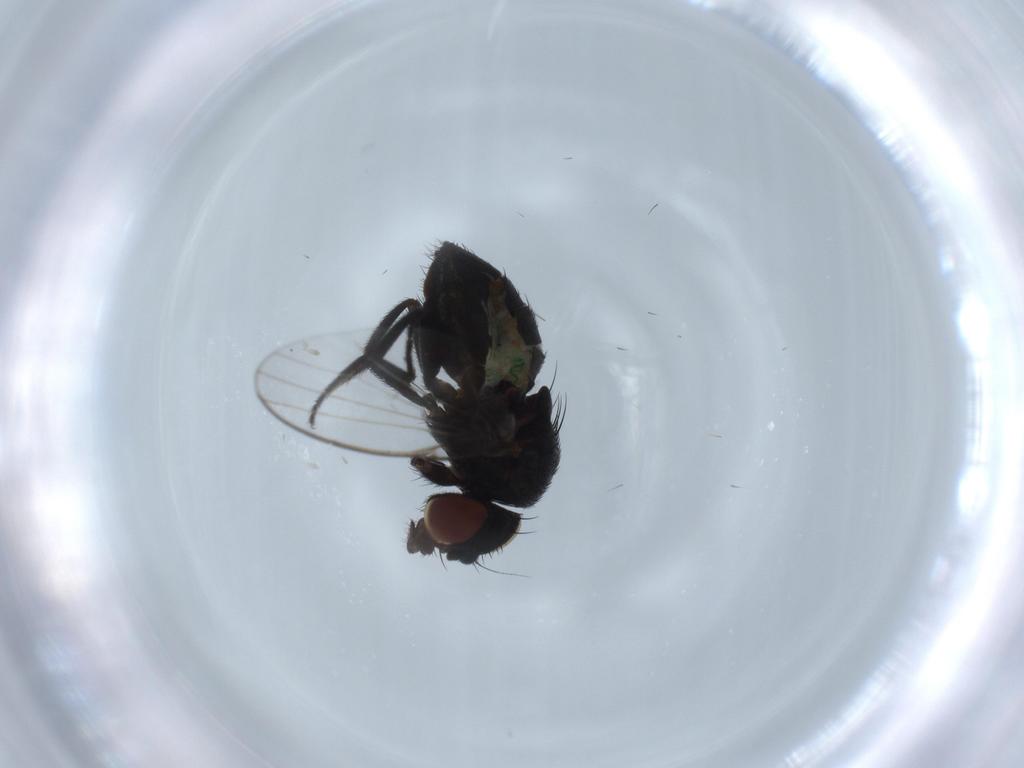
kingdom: Animalia
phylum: Arthropoda
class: Insecta
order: Diptera
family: Milichiidae
